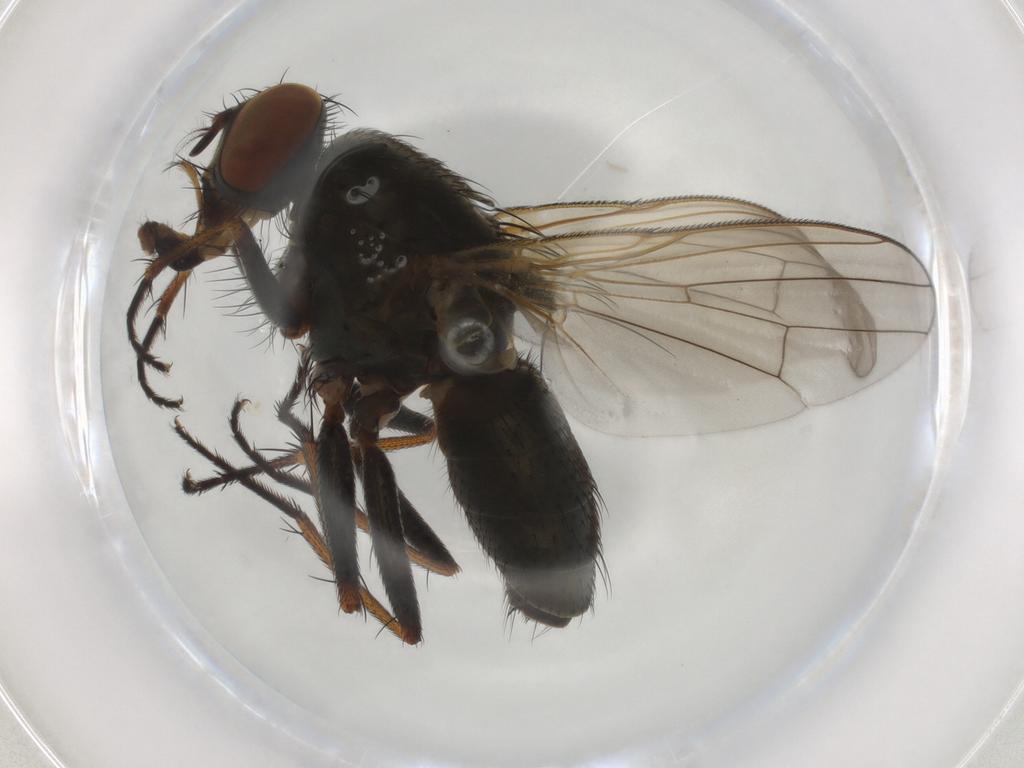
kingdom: Animalia
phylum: Arthropoda
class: Insecta
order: Diptera
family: Muscidae
